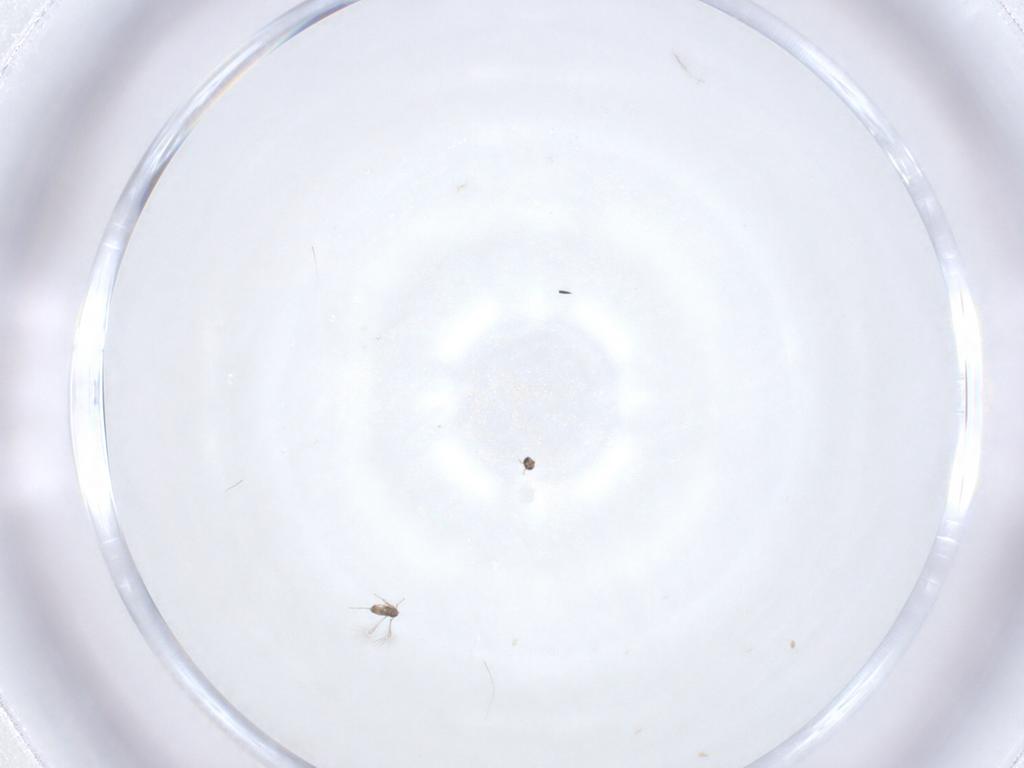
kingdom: Animalia
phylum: Arthropoda
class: Insecta
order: Hymenoptera
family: Mymaridae
